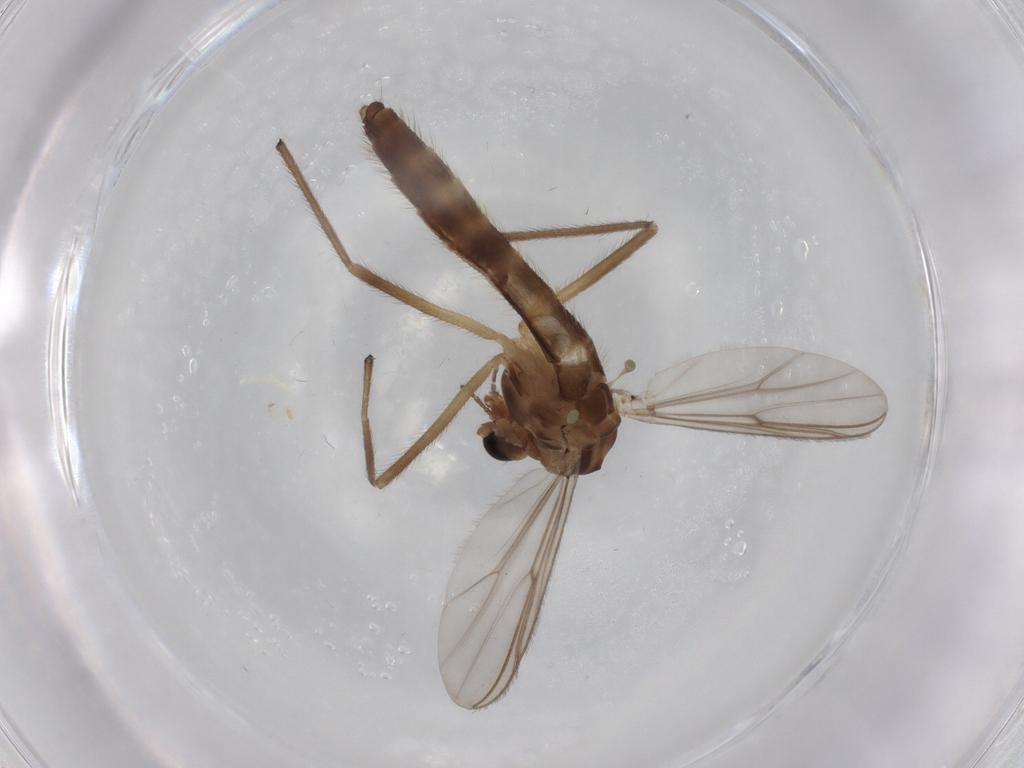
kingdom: Animalia
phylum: Arthropoda
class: Insecta
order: Diptera
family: Chironomidae
